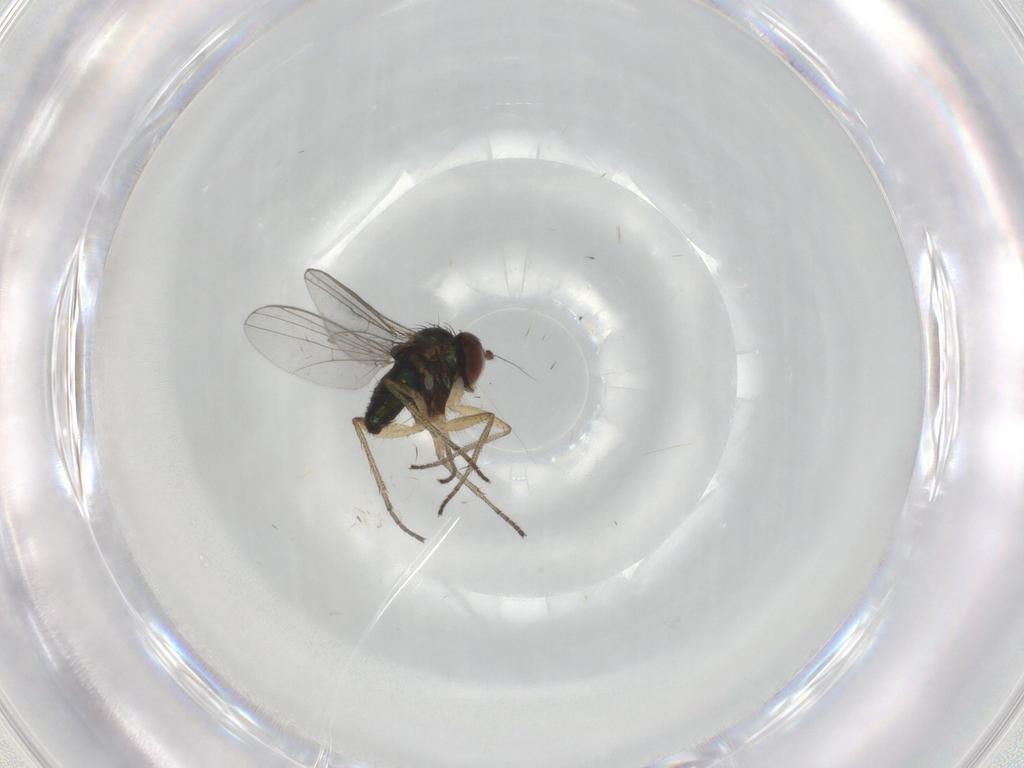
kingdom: Animalia
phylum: Arthropoda
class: Insecta
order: Diptera
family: Dolichopodidae
